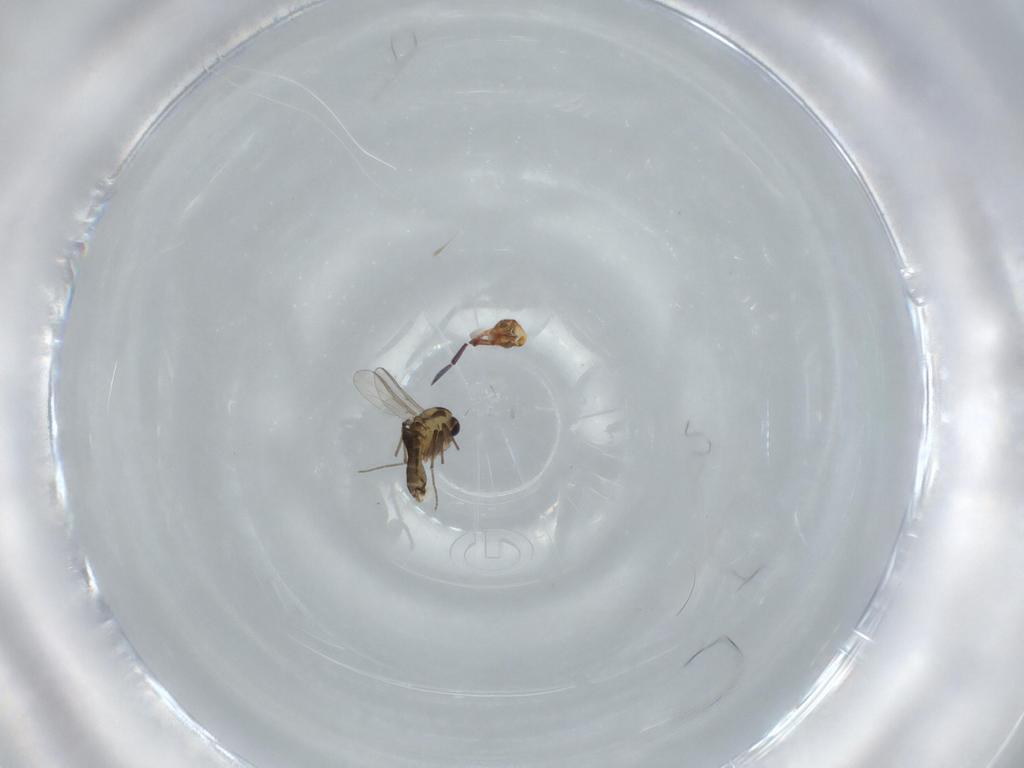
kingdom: Animalia
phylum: Arthropoda
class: Insecta
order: Diptera
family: Chironomidae
